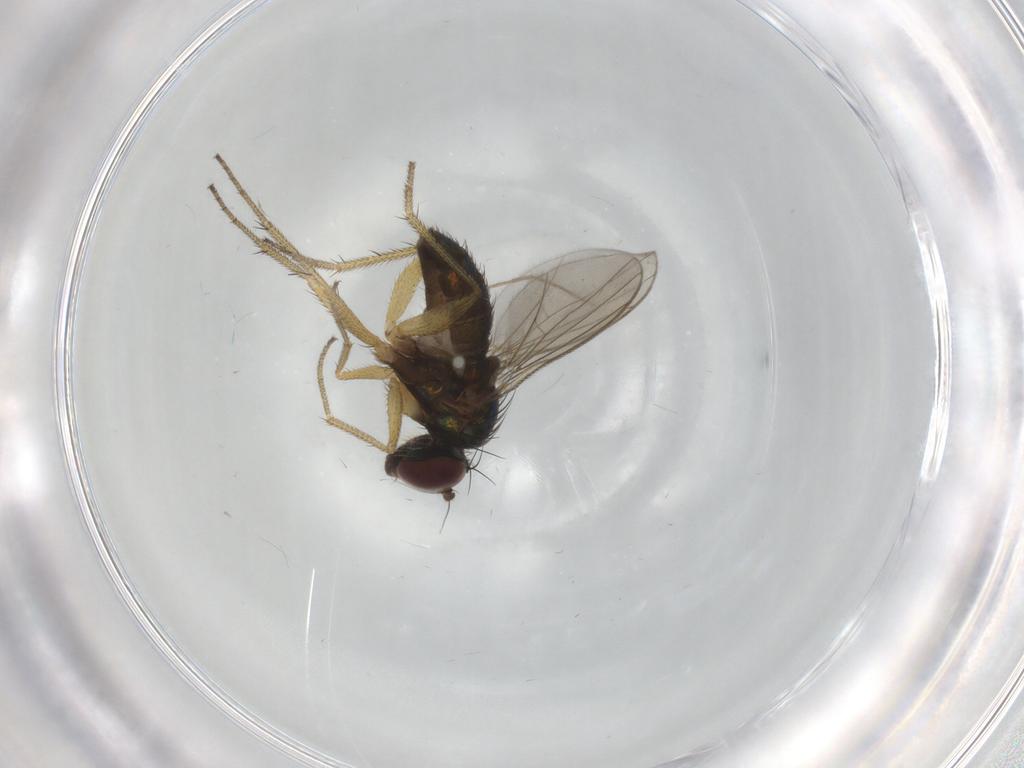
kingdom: Animalia
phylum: Arthropoda
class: Insecta
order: Diptera
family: Dolichopodidae
